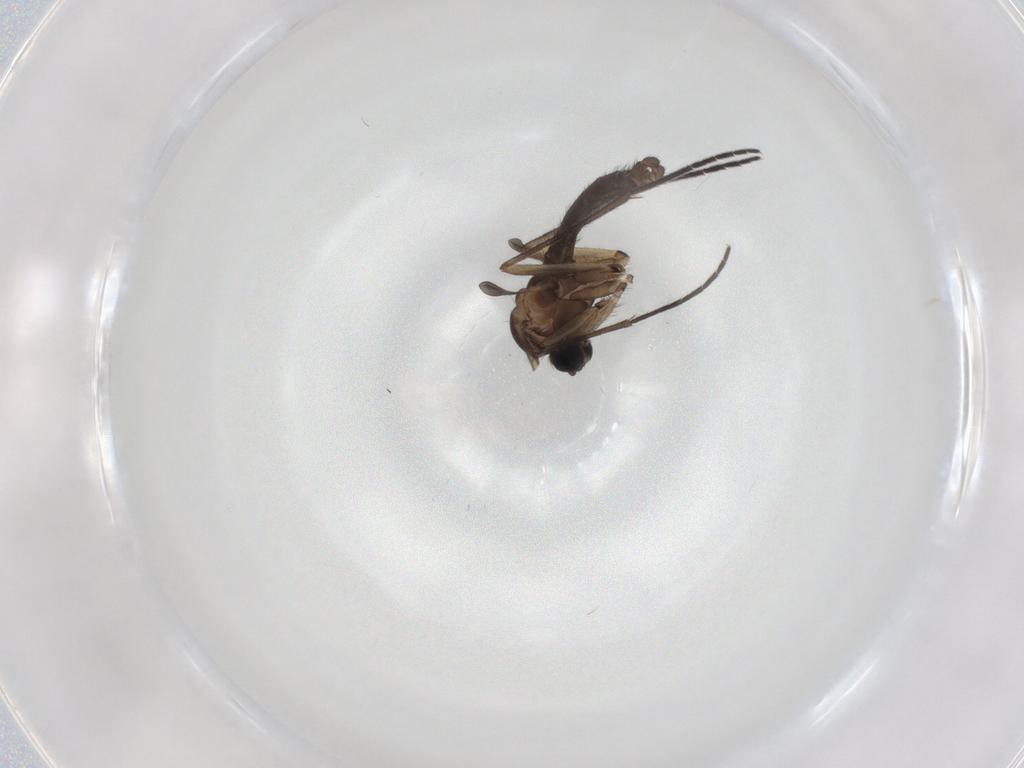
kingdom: Animalia
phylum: Arthropoda
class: Insecta
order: Diptera
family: Sciaridae
